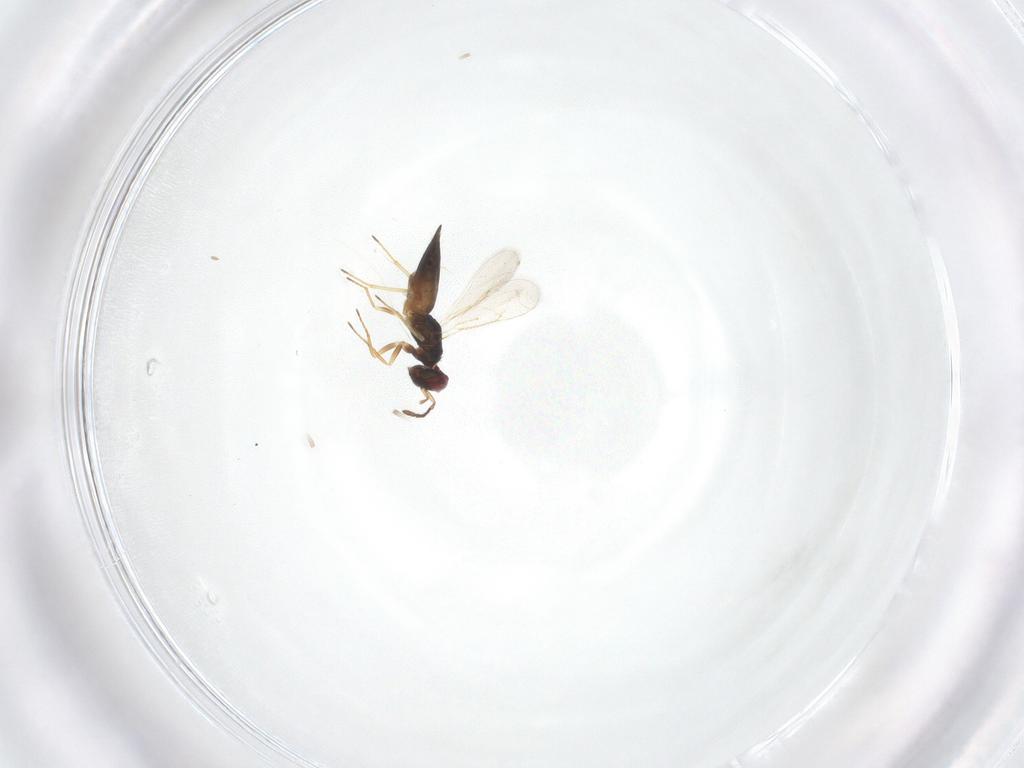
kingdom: Animalia
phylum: Arthropoda
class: Insecta
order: Hymenoptera
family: Eulophidae
